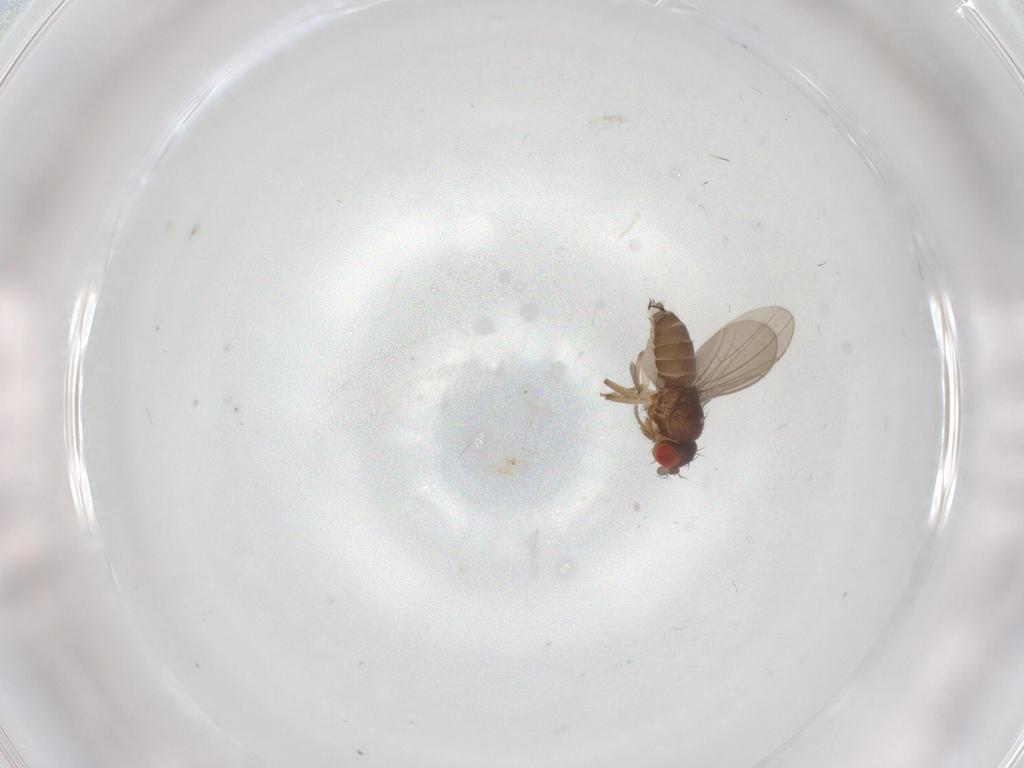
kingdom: Animalia
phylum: Arthropoda
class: Insecta
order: Diptera
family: Drosophilidae
